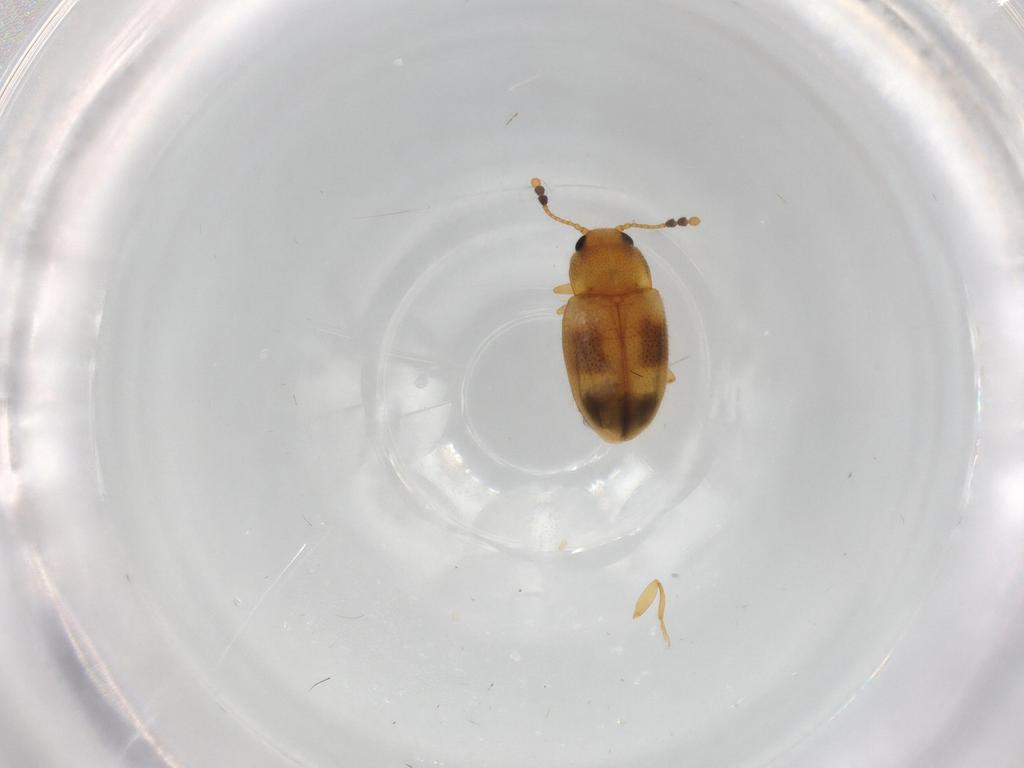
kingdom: Animalia
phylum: Arthropoda
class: Insecta
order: Coleoptera
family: Erotylidae
